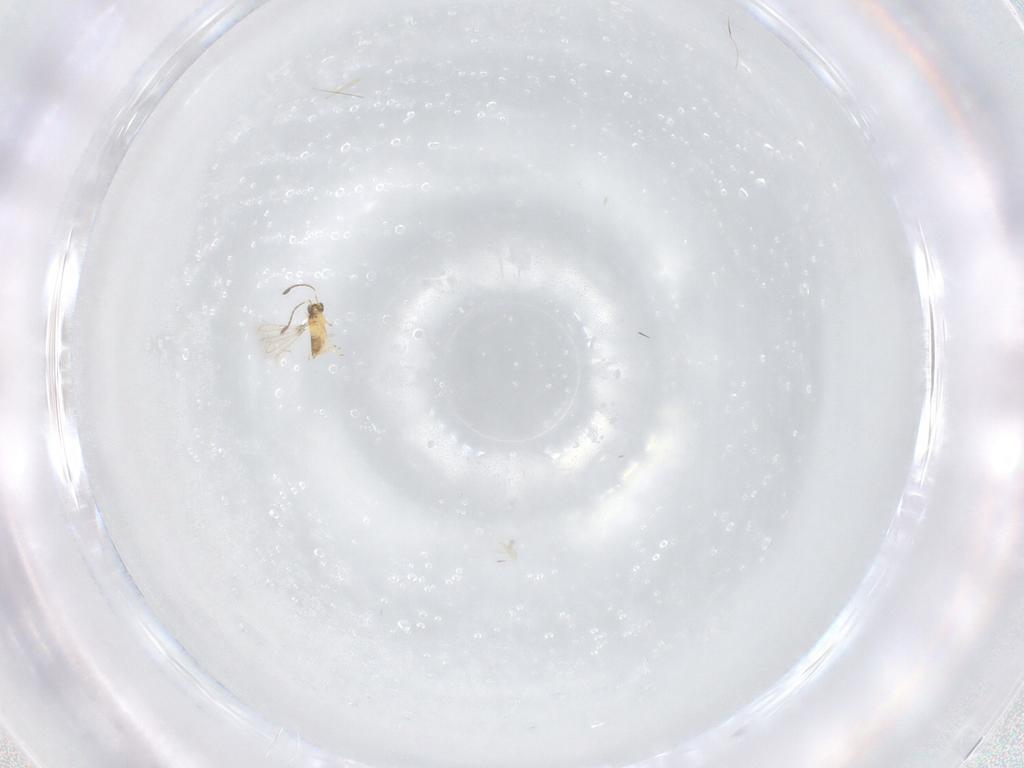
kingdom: Animalia
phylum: Arthropoda
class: Insecta
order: Hymenoptera
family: Mymaridae
